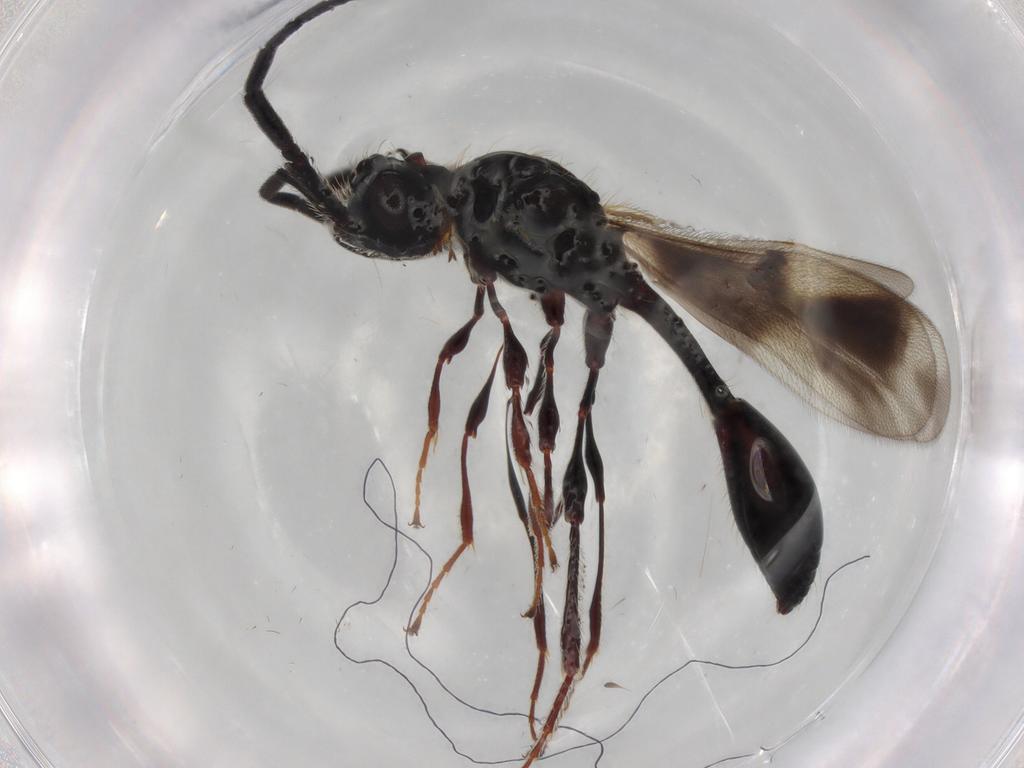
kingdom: Animalia
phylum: Arthropoda
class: Insecta
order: Hymenoptera
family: Diapriidae
